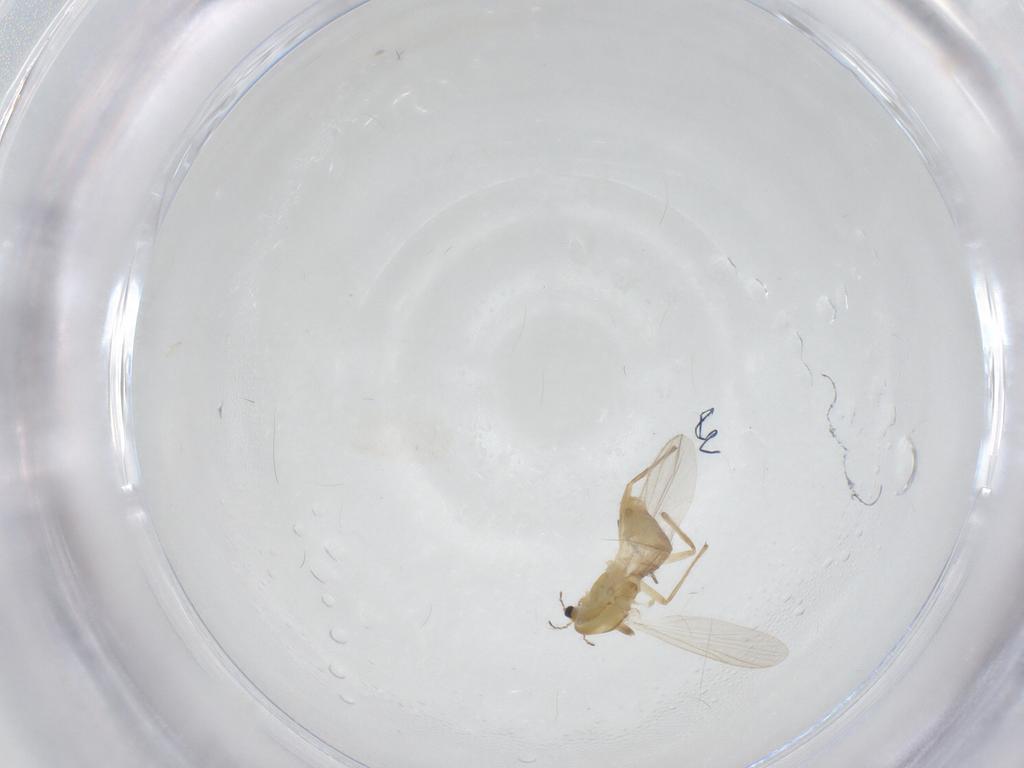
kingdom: Animalia
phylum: Arthropoda
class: Insecta
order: Diptera
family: Chironomidae
